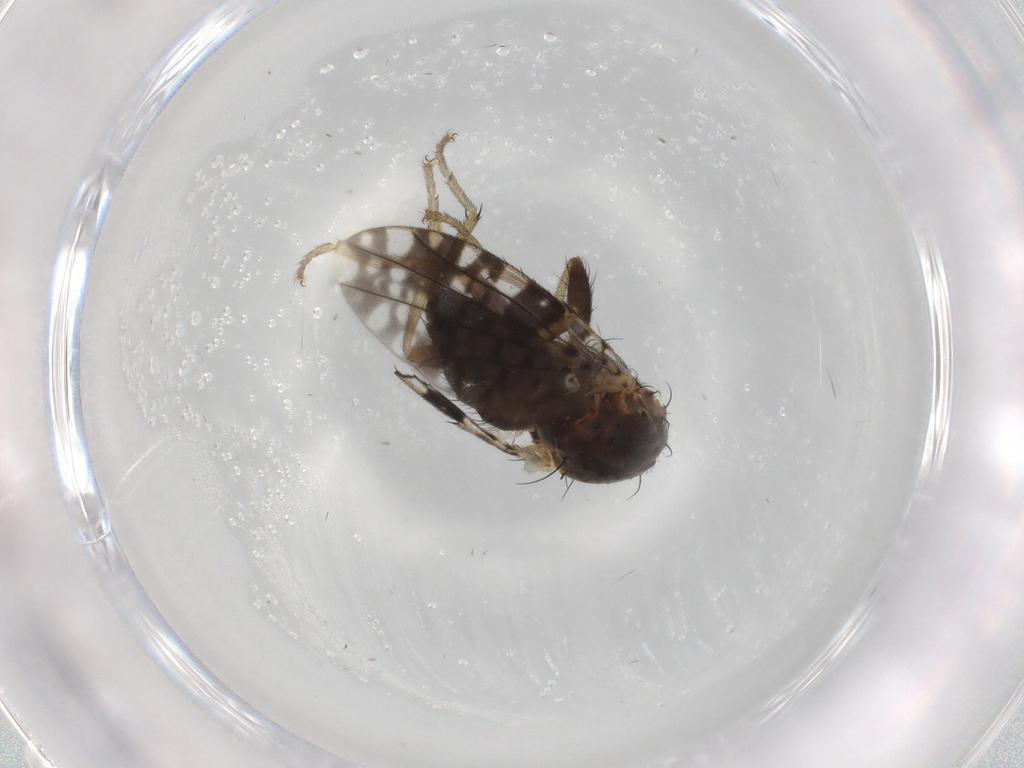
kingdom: Animalia
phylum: Arthropoda
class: Insecta
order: Diptera
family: Tephritidae
